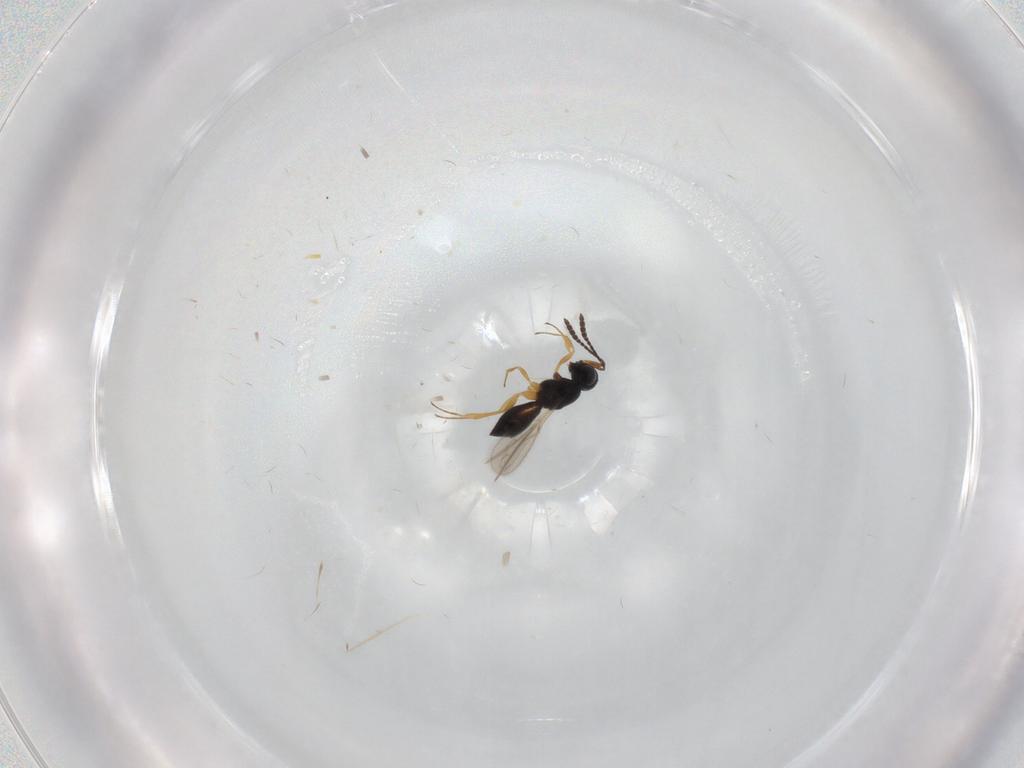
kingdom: Animalia
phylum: Arthropoda
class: Insecta
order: Hymenoptera
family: Scelionidae
